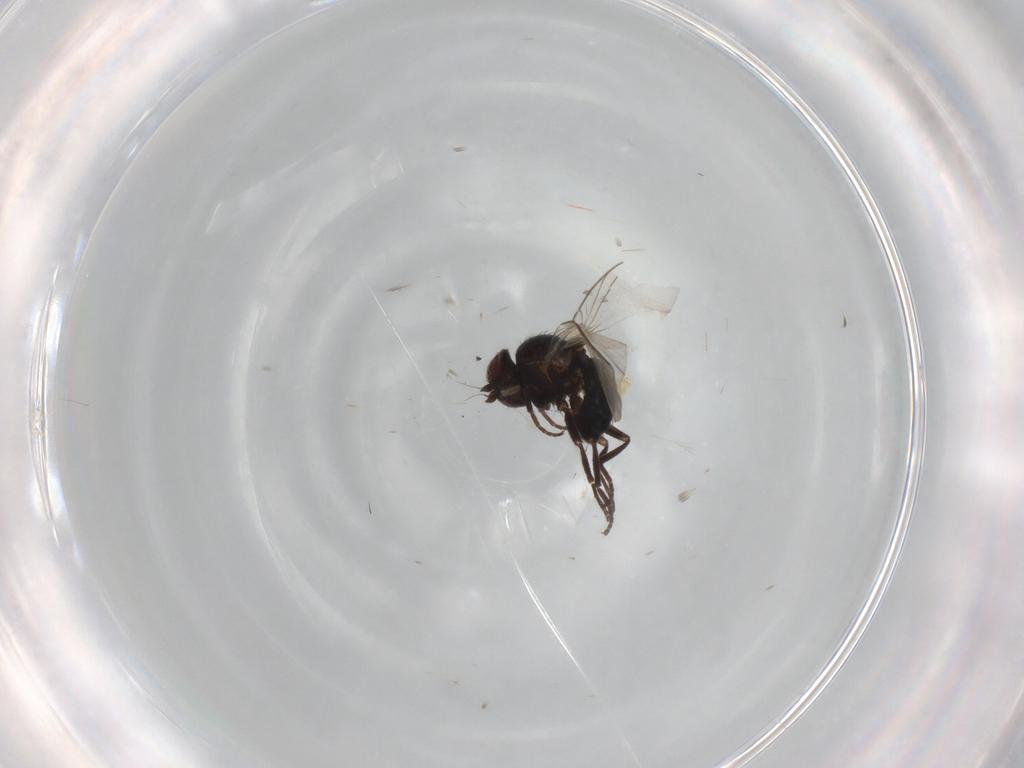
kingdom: Animalia
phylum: Arthropoda
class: Insecta
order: Diptera
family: Agromyzidae
